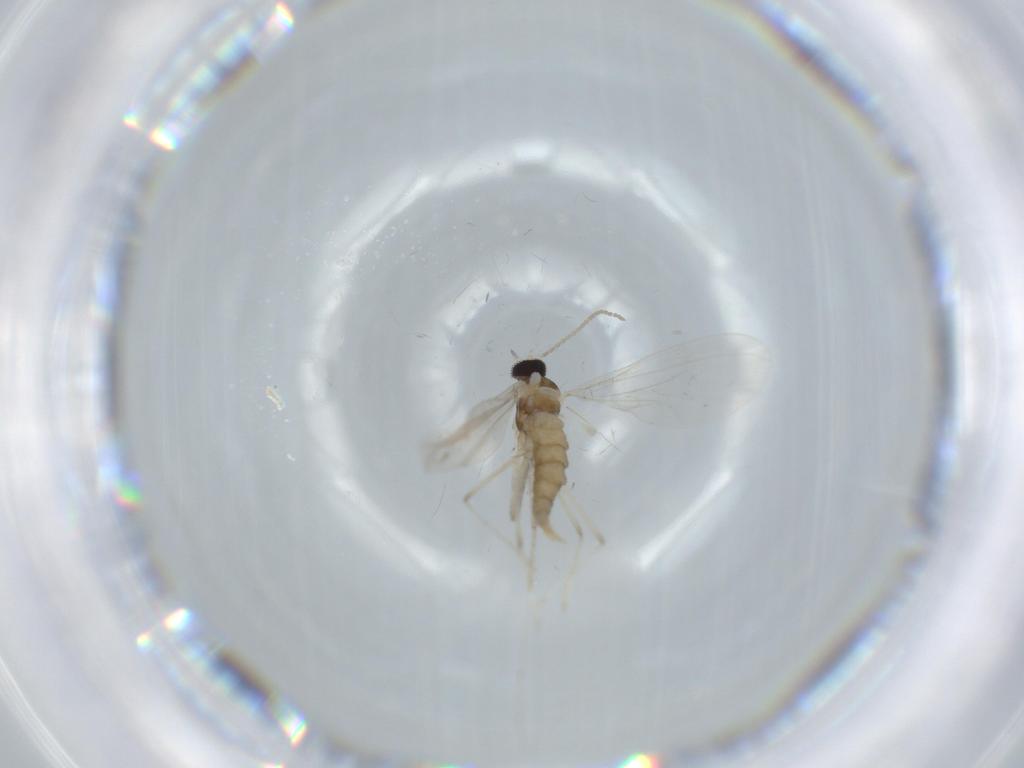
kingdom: Animalia
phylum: Arthropoda
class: Insecta
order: Diptera
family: Cecidomyiidae
